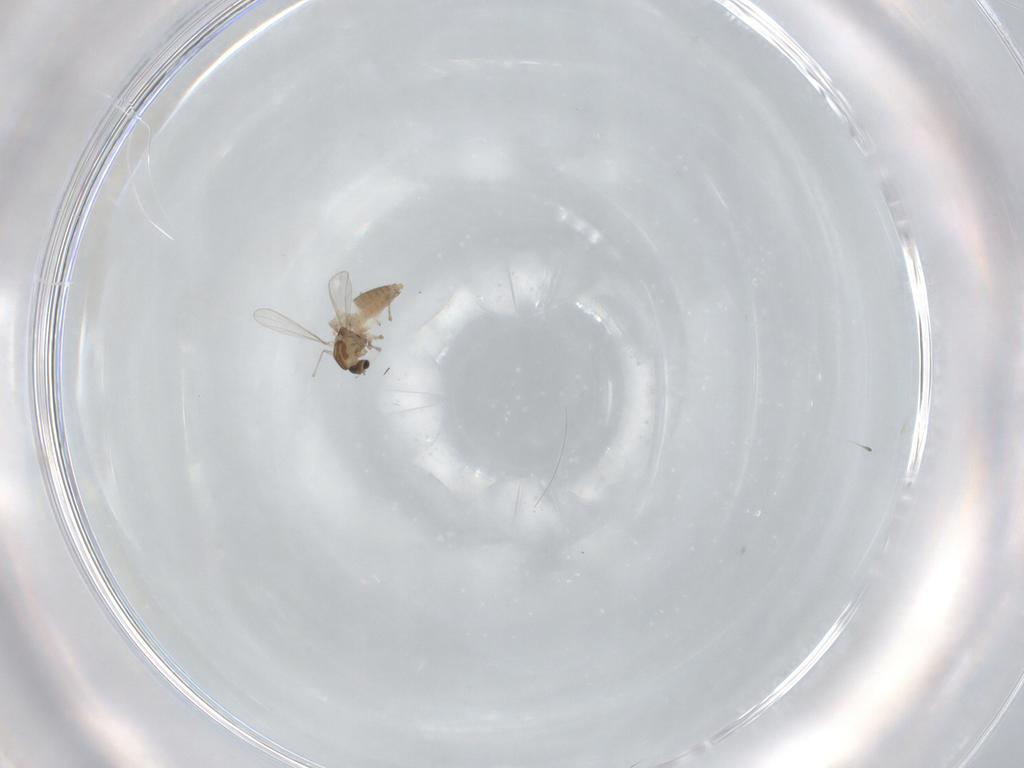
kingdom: Animalia
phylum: Arthropoda
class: Insecta
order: Diptera
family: Chironomidae
